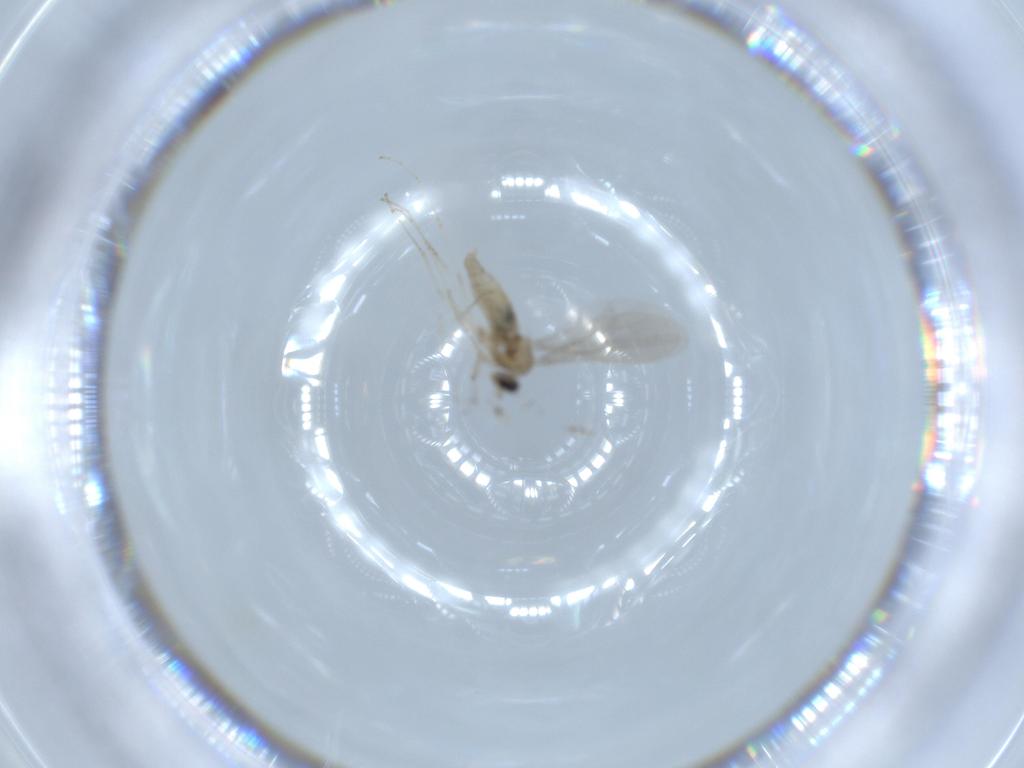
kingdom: Animalia
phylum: Arthropoda
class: Insecta
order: Diptera
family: Cecidomyiidae
